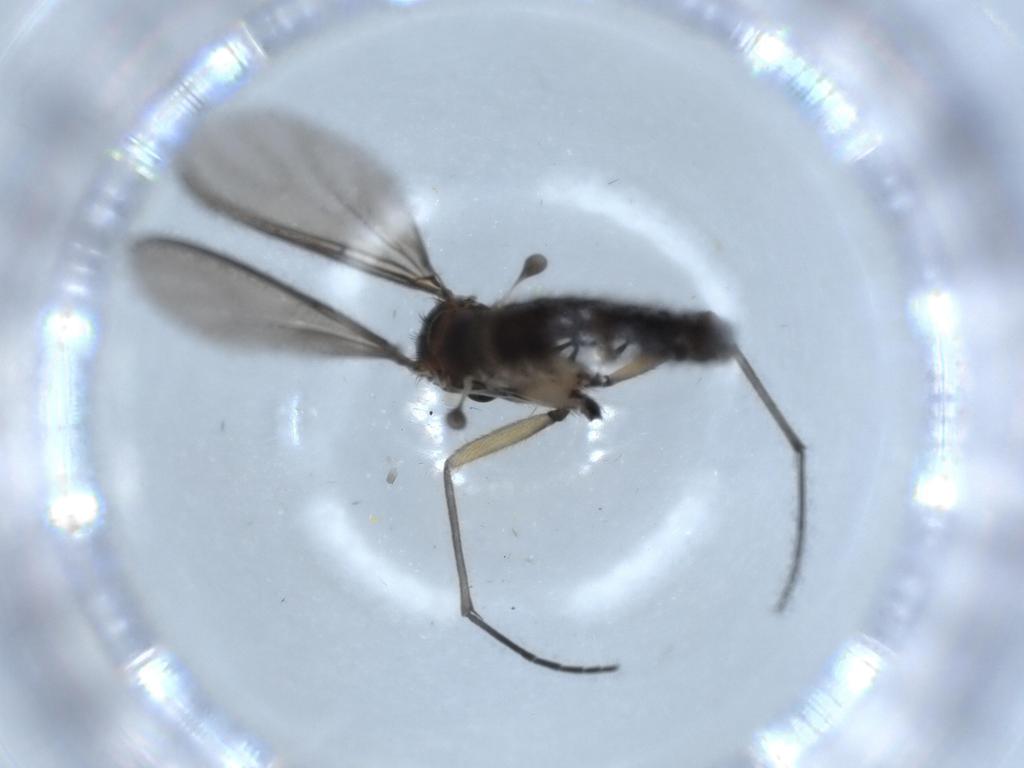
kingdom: Animalia
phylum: Arthropoda
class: Insecta
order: Diptera
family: Sciaridae
